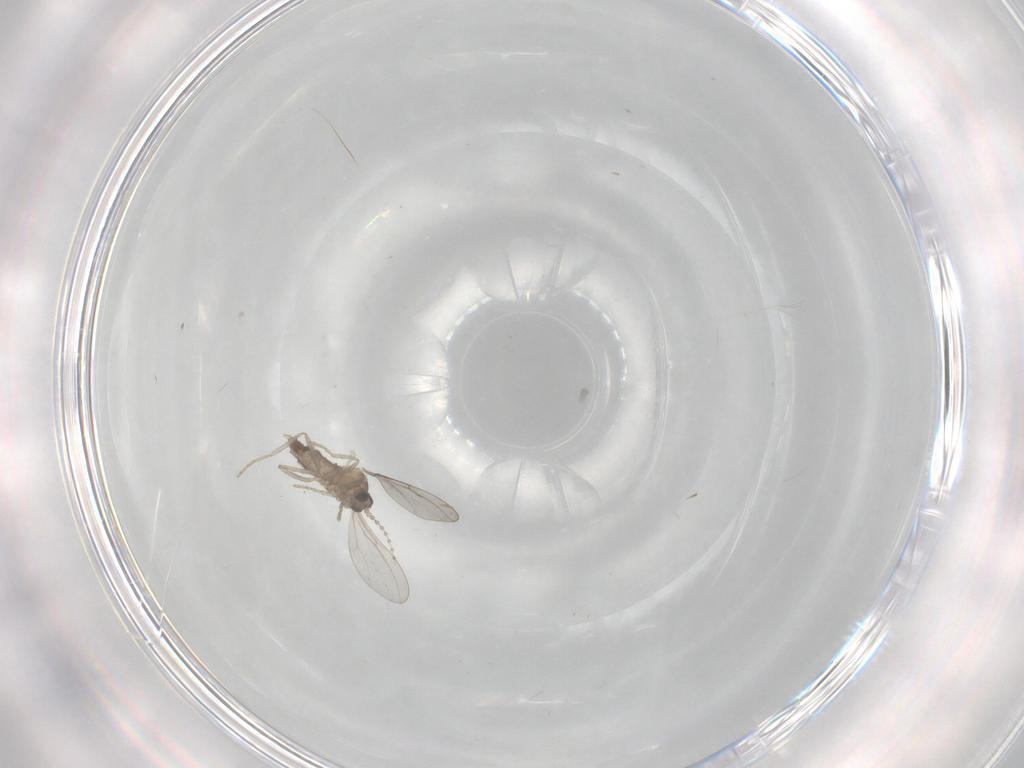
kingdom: Animalia
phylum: Arthropoda
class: Insecta
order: Diptera
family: Cecidomyiidae
